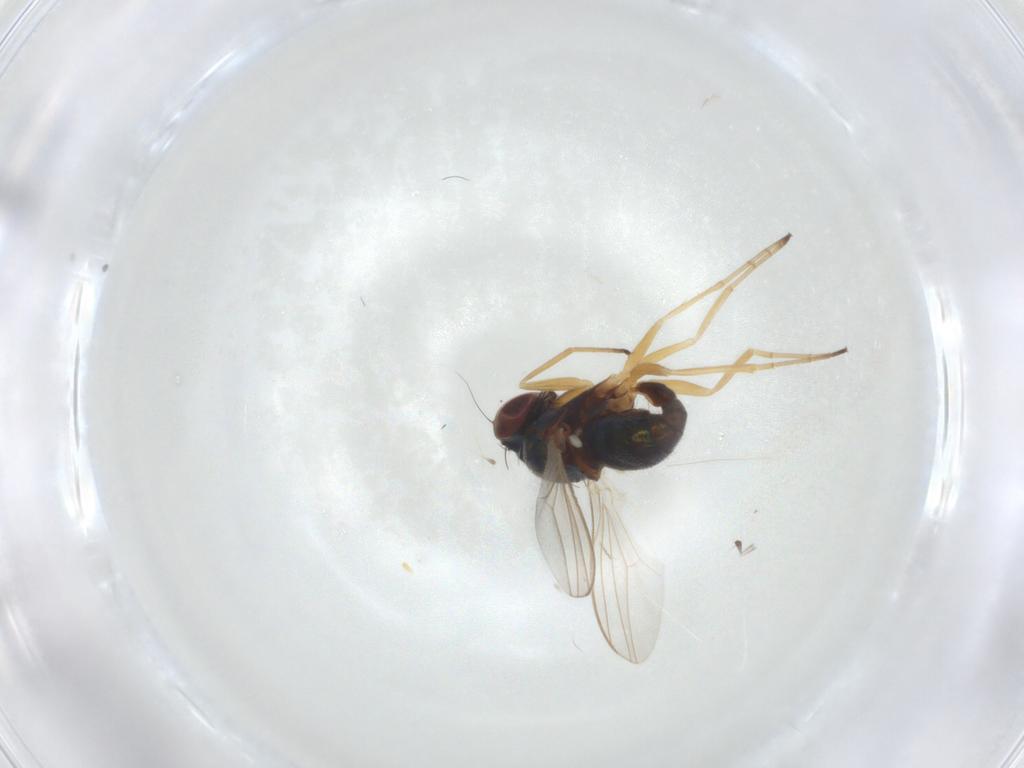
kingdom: Animalia
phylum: Arthropoda
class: Insecta
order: Diptera
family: Dolichopodidae
